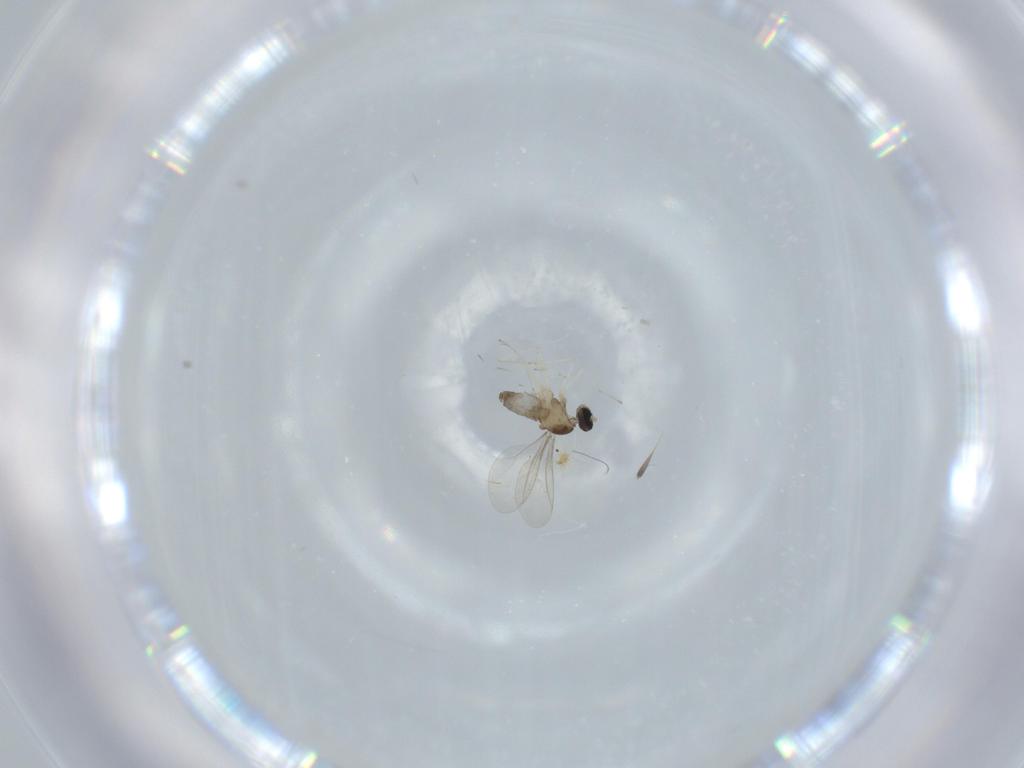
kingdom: Animalia
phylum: Arthropoda
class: Insecta
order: Diptera
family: Cecidomyiidae
